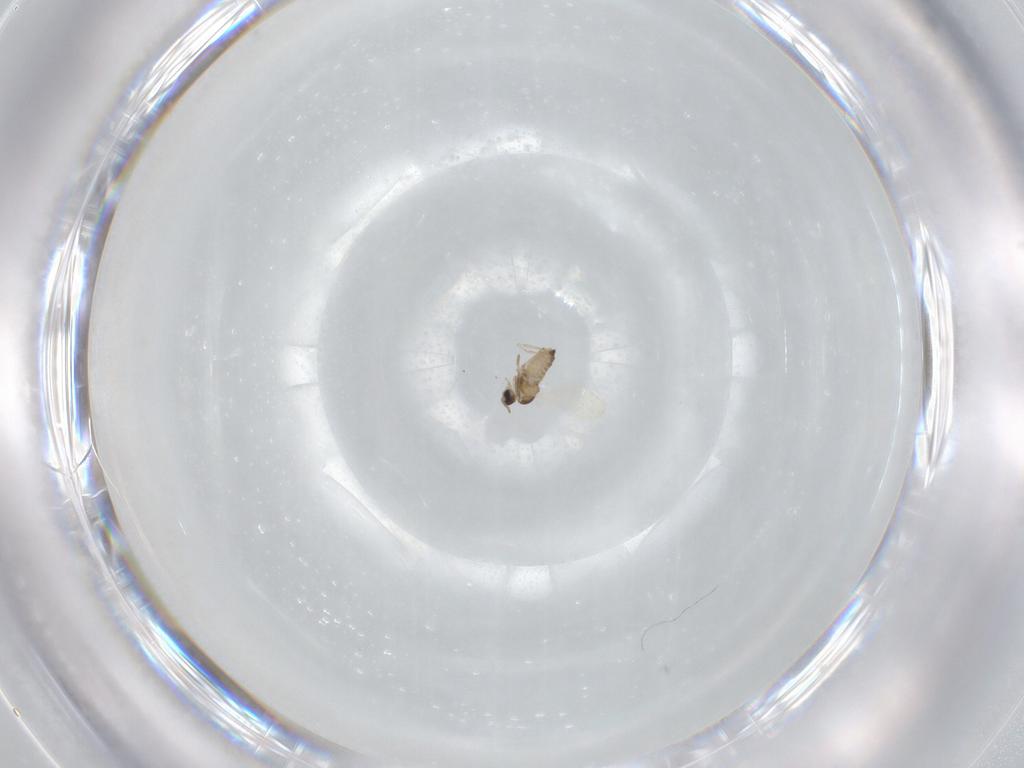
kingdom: Animalia
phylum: Arthropoda
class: Insecta
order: Diptera
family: Cecidomyiidae
